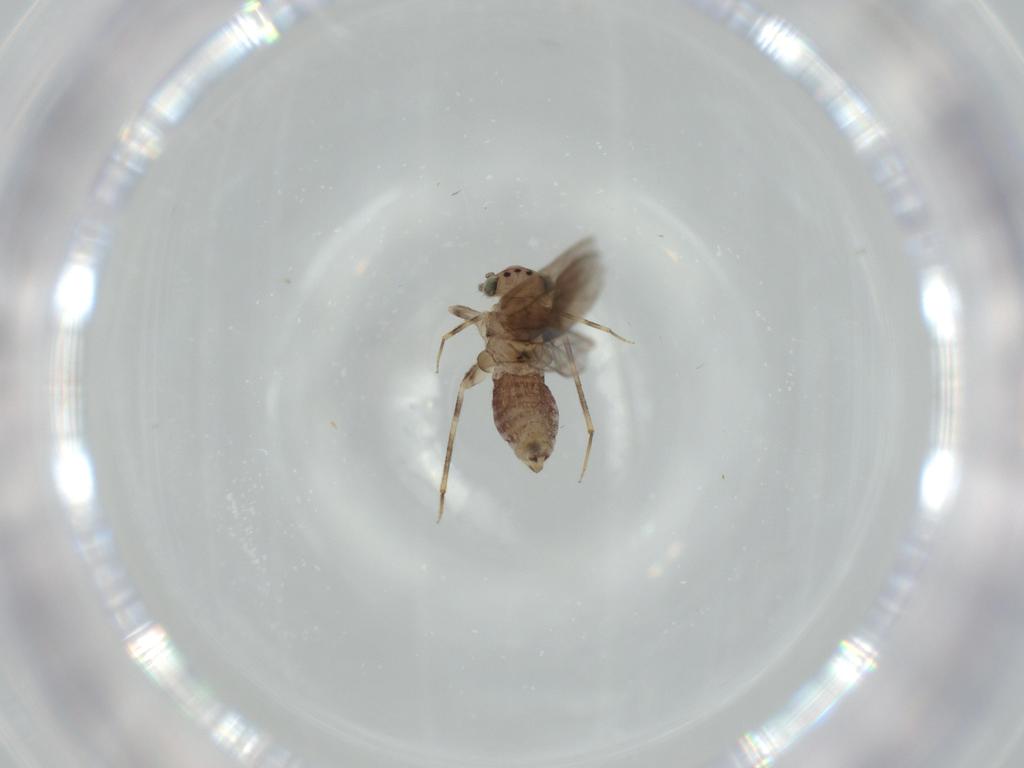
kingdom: Animalia
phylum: Arthropoda
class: Insecta
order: Psocodea
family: Lepidopsocidae
